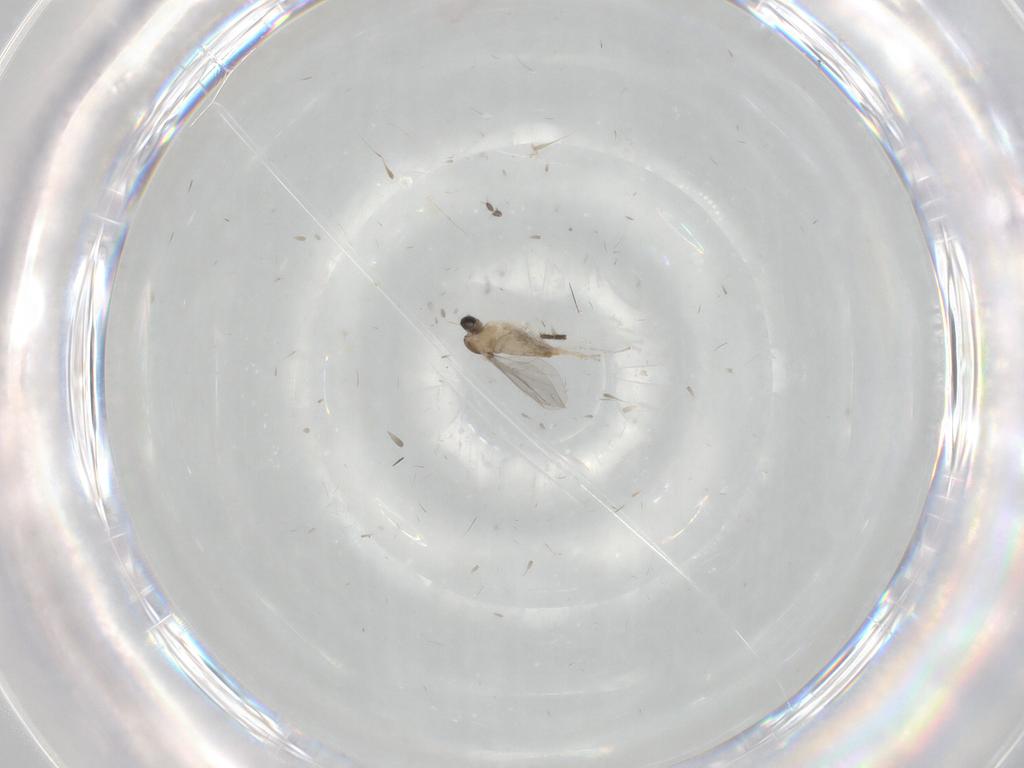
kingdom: Animalia
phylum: Arthropoda
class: Insecta
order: Diptera
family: Cecidomyiidae
